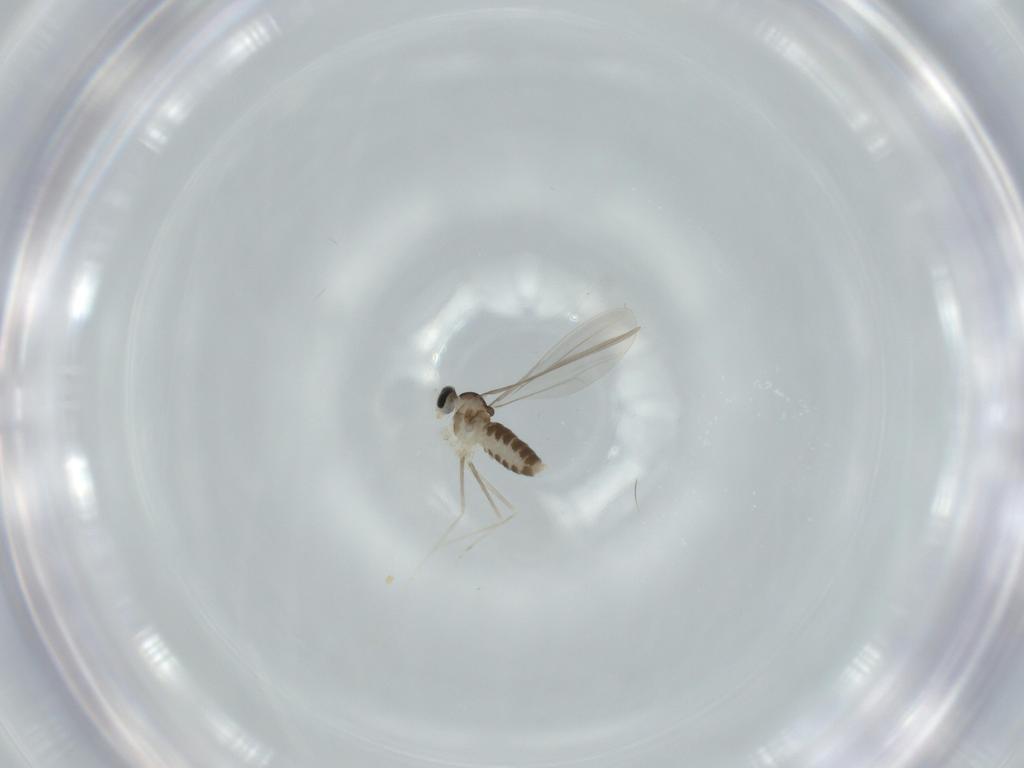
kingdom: Animalia
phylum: Arthropoda
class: Insecta
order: Diptera
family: Cecidomyiidae
